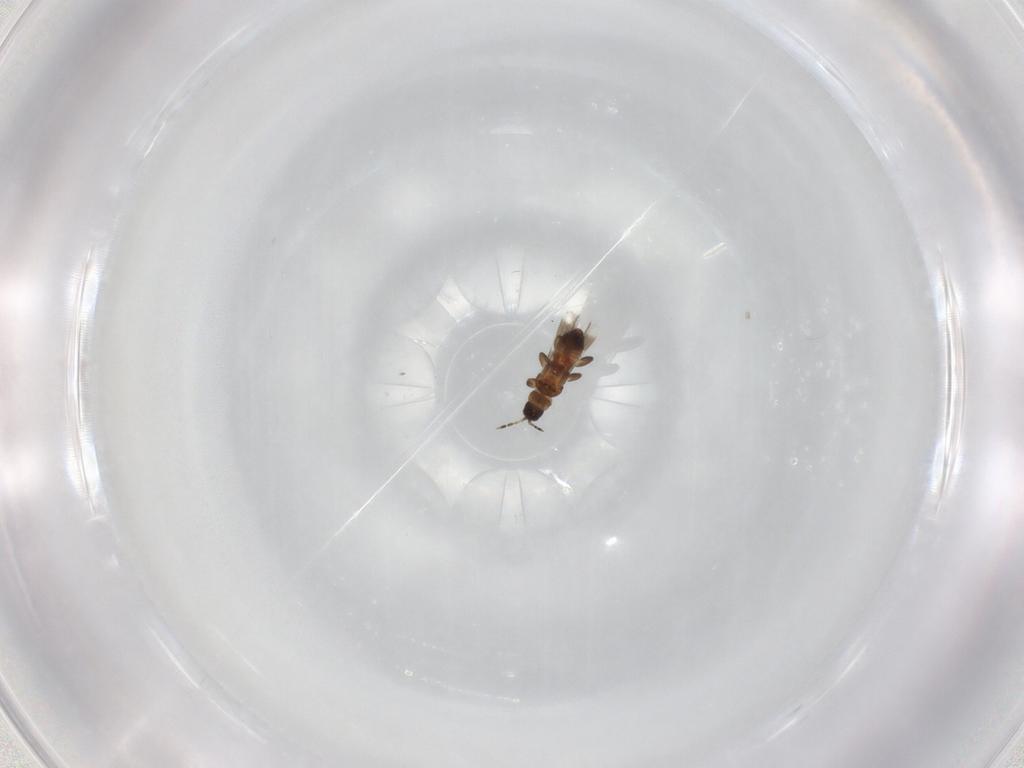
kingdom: Animalia
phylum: Arthropoda
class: Insecta
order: Thysanoptera
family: Aeolothripidae
